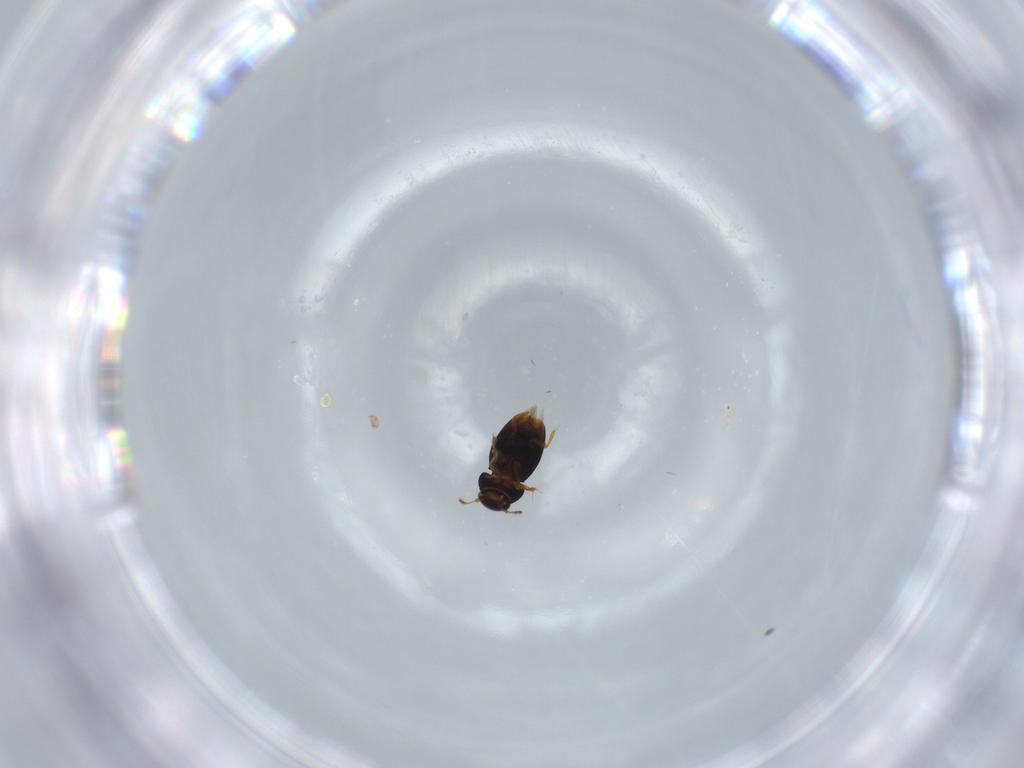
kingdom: Animalia
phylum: Arthropoda
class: Insecta
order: Coleoptera
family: Ptiliidae
